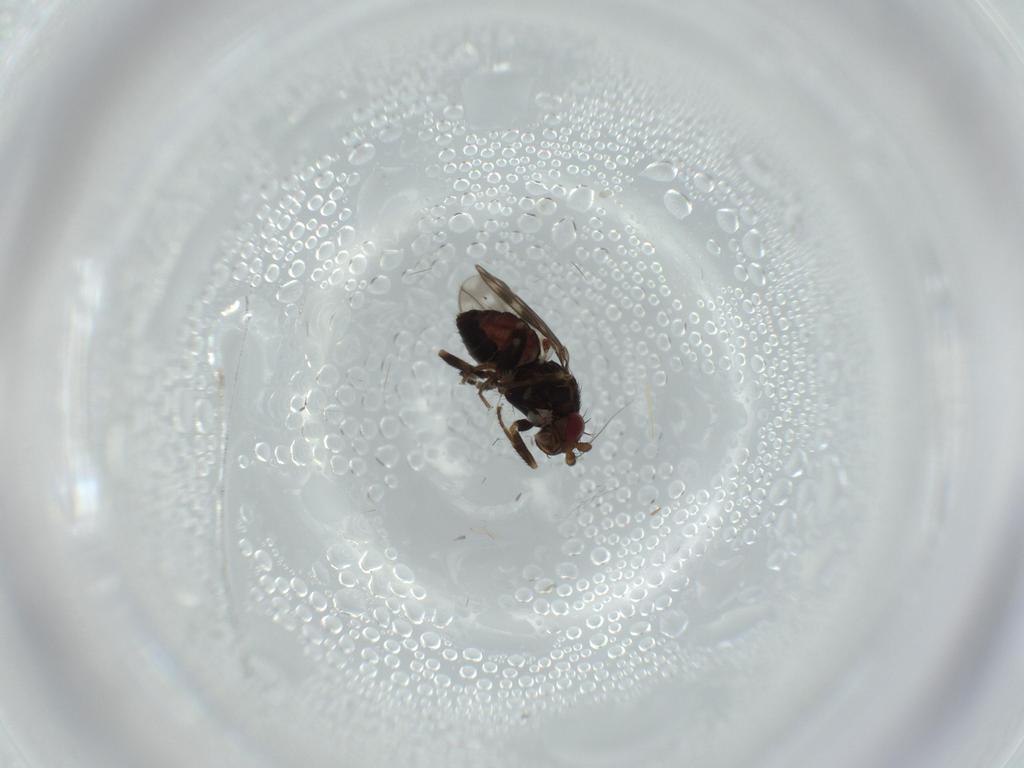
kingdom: Animalia
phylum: Arthropoda
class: Insecta
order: Diptera
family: Sphaeroceridae
